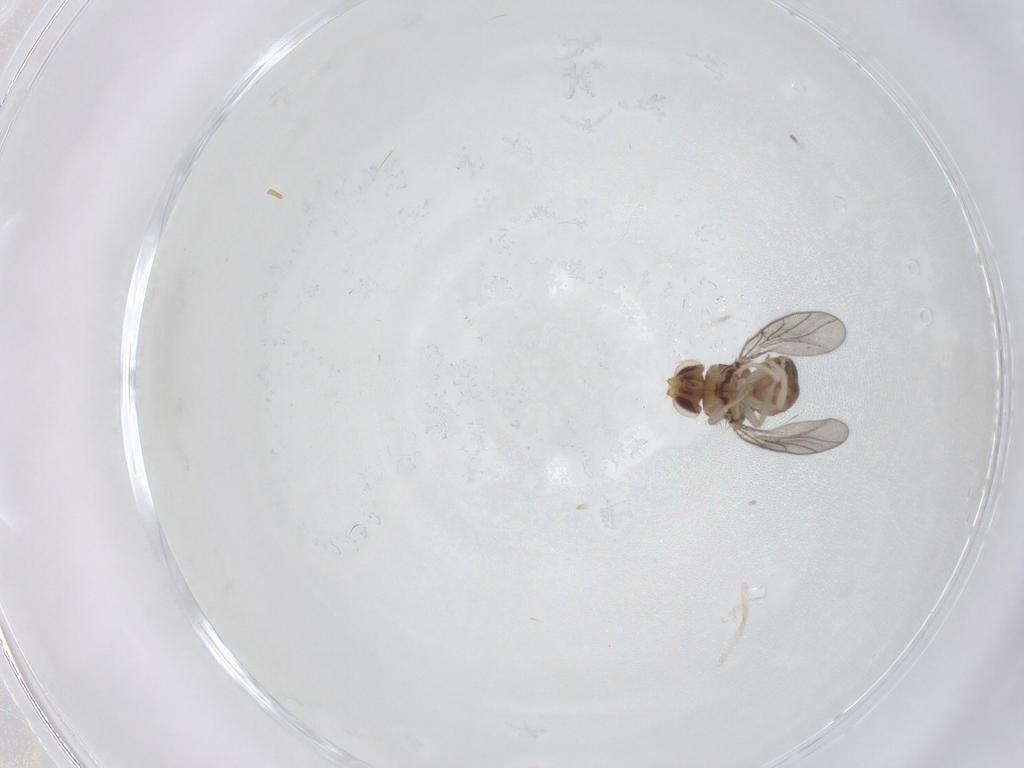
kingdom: Animalia
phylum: Arthropoda
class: Insecta
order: Diptera
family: Chloropidae
